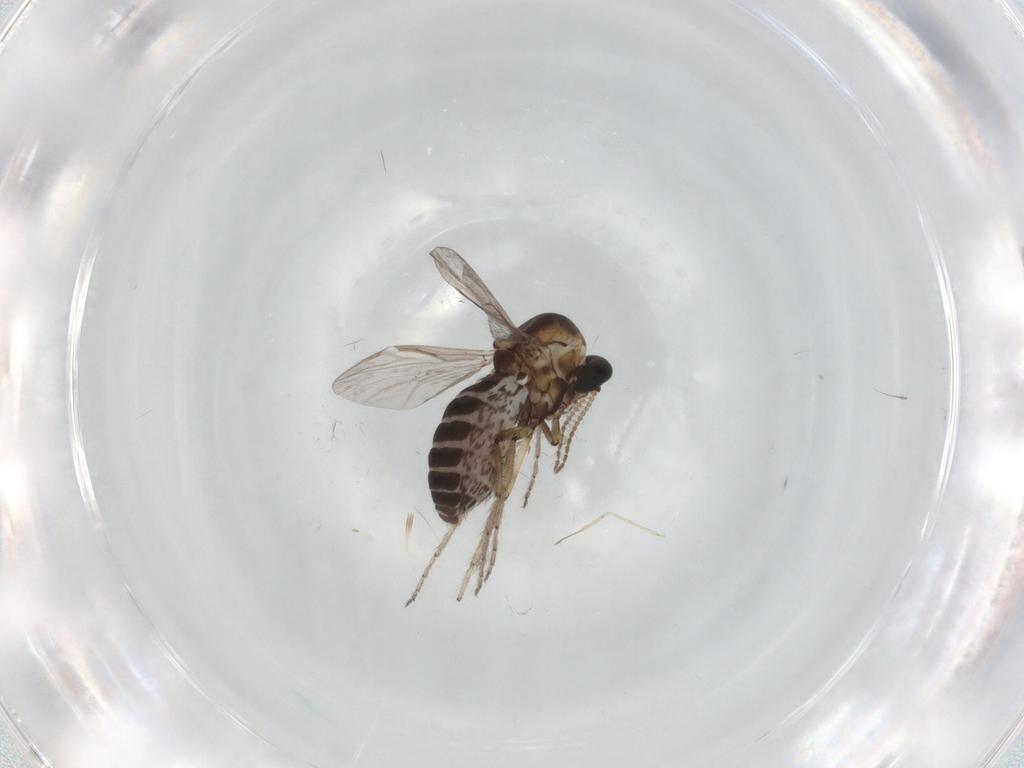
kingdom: Animalia
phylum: Arthropoda
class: Insecta
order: Diptera
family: Ceratopogonidae
